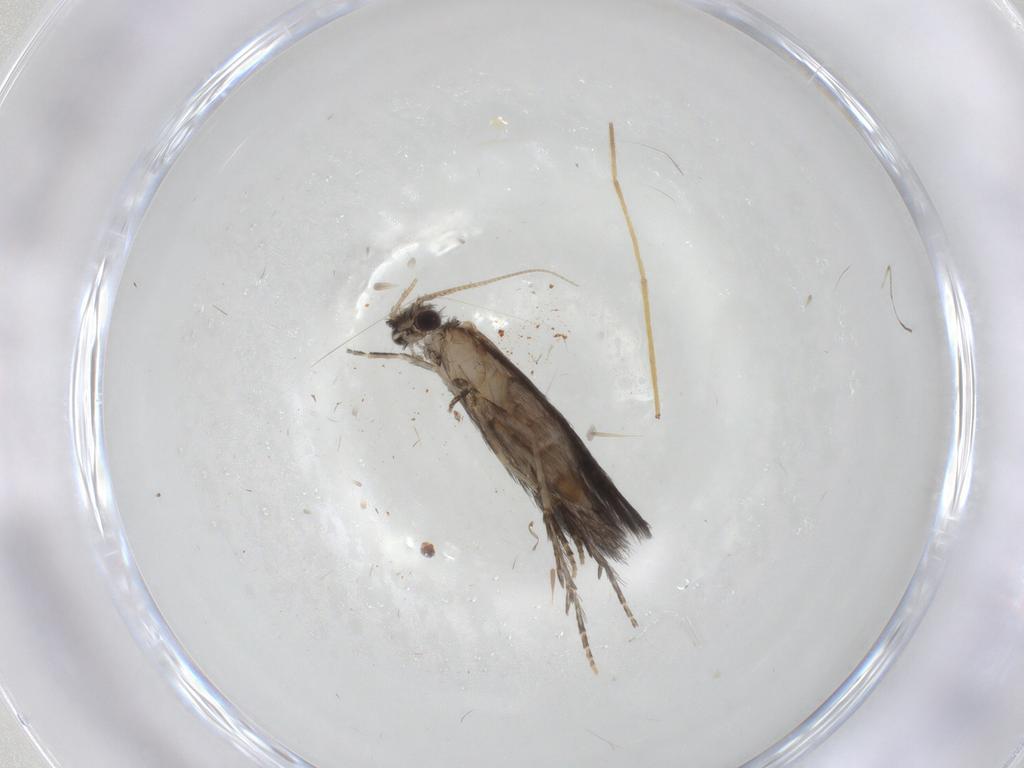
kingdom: Animalia
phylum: Arthropoda
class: Insecta
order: Trichoptera
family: Hydroptilidae
